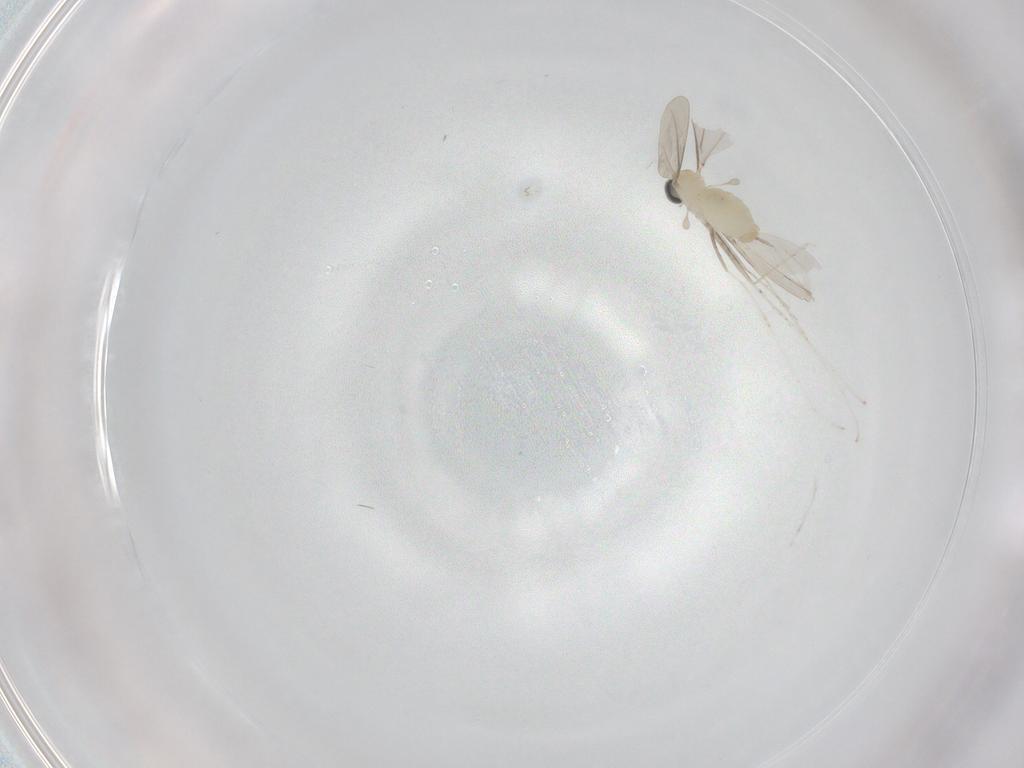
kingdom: Animalia
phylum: Arthropoda
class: Insecta
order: Diptera
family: Cecidomyiidae
